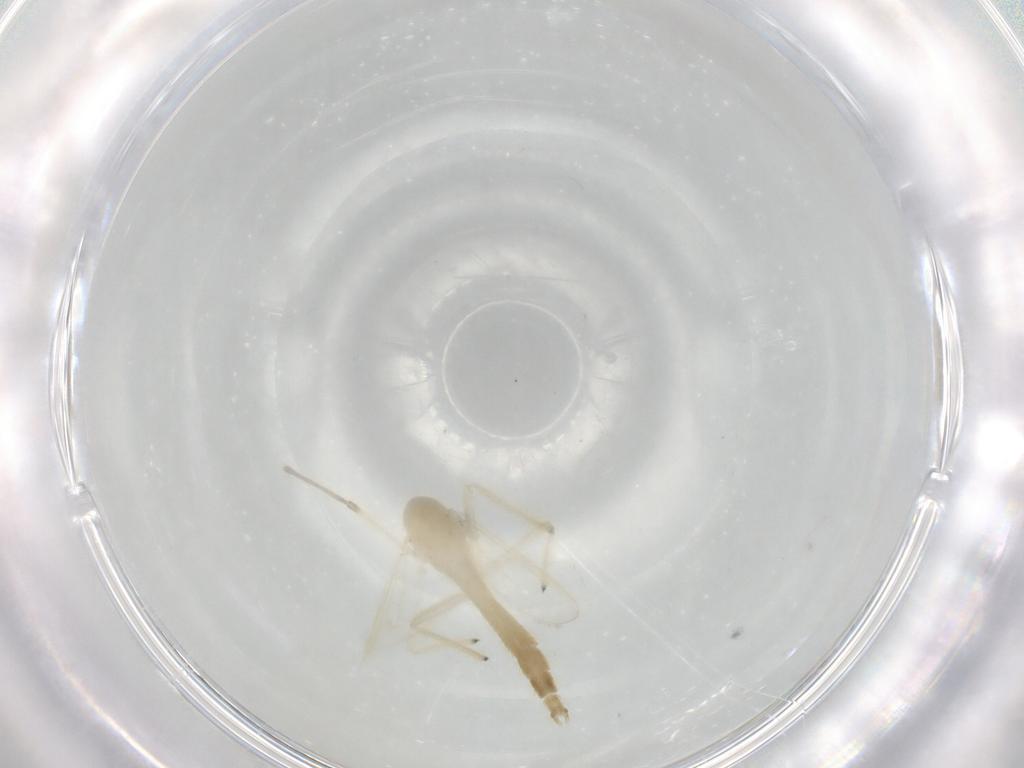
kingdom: Animalia
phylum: Arthropoda
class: Insecta
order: Diptera
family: Chironomidae
